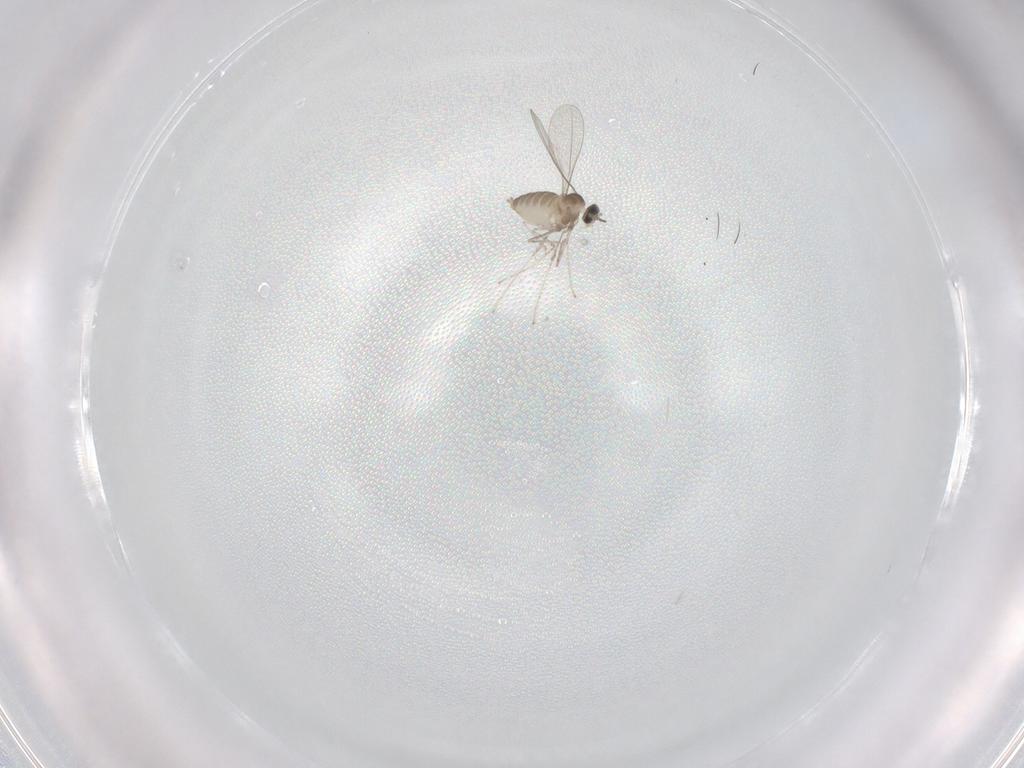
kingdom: Animalia
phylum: Arthropoda
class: Insecta
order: Diptera
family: Cecidomyiidae
